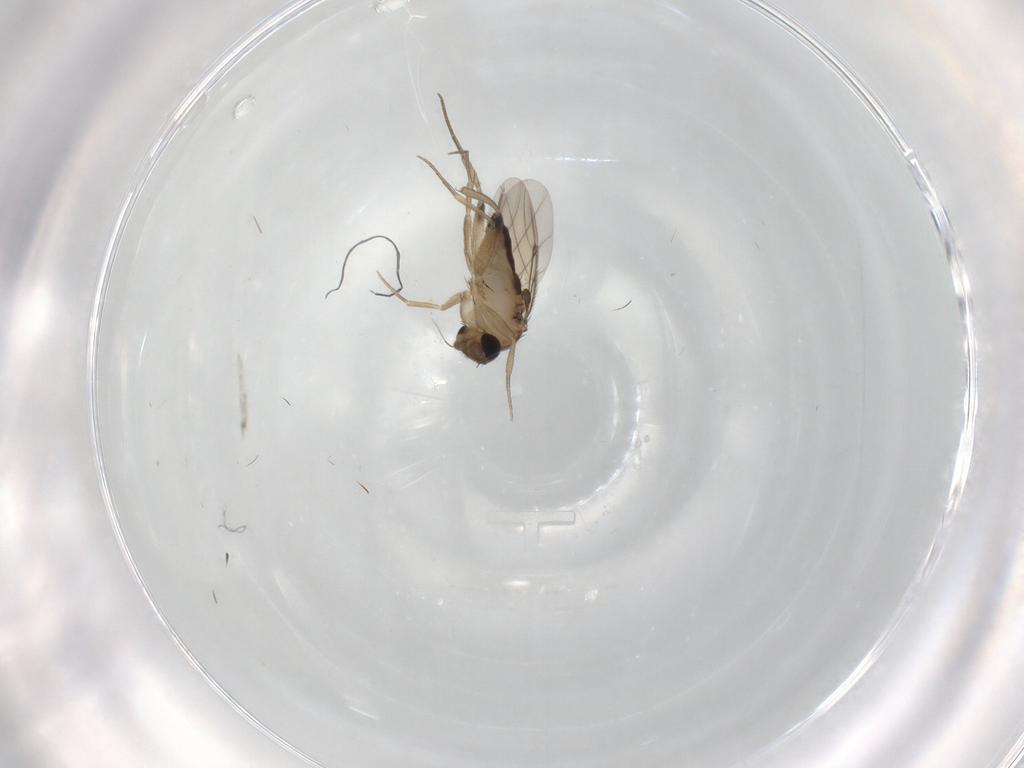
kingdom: Animalia
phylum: Arthropoda
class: Insecta
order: Diptera
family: Phoridae
